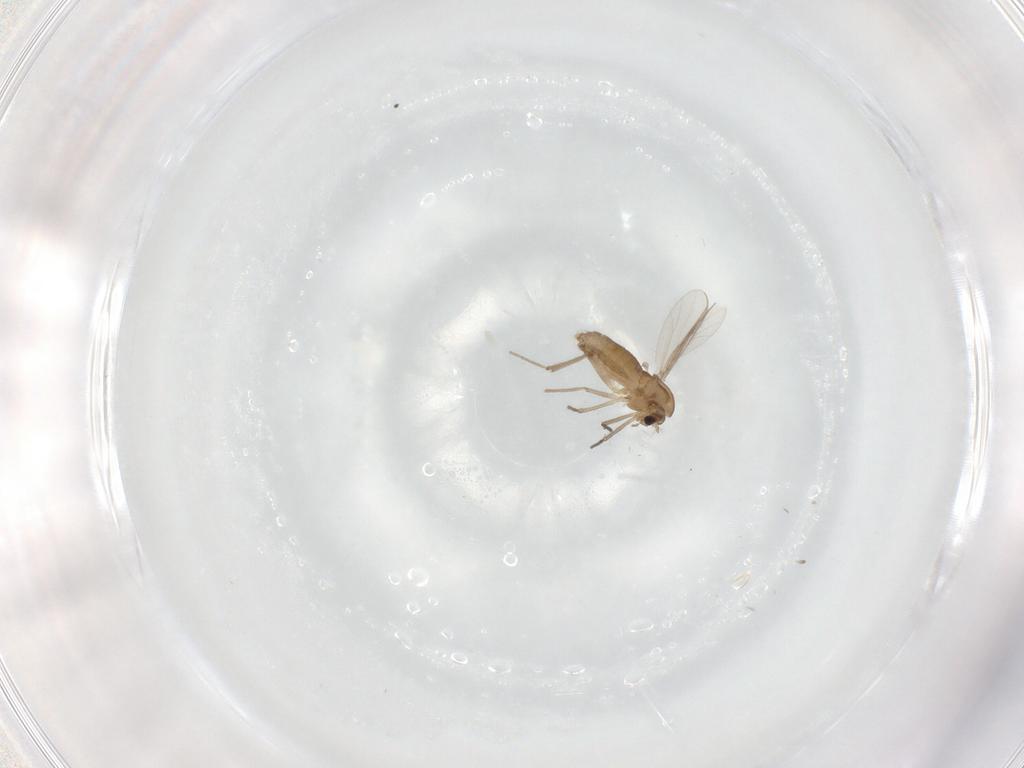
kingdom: Animalia
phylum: Arthropoda
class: Insecta
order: Diptera
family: Chironomidae
